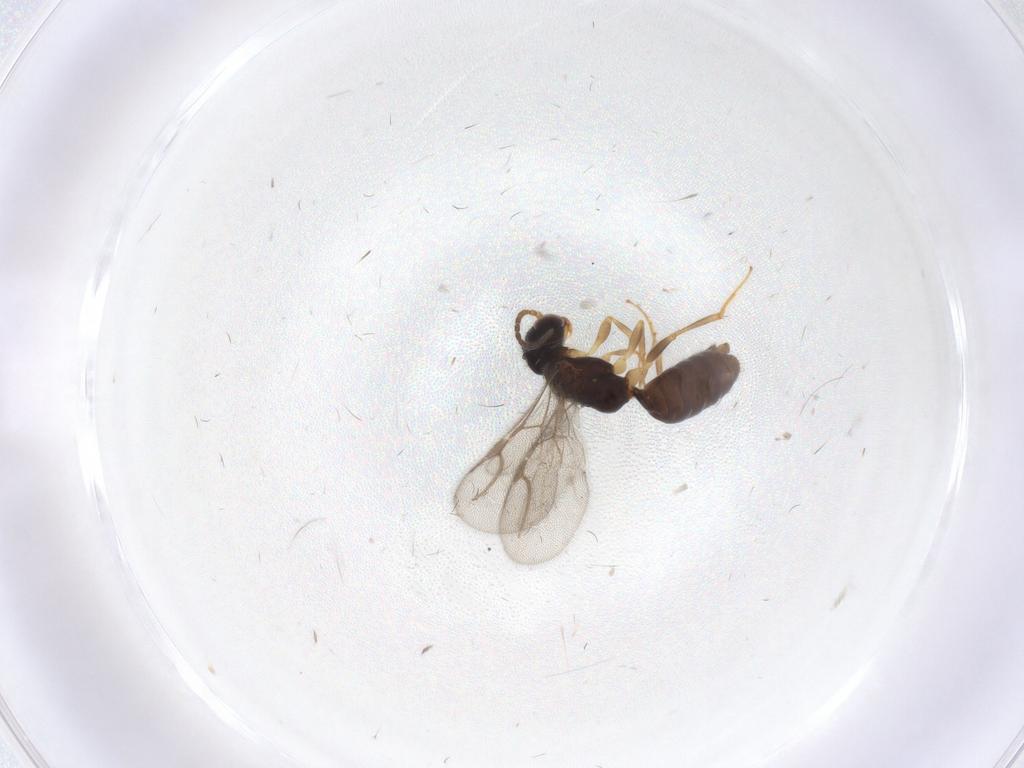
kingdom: Animalia
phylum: Arthropoda
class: Insecta
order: Hymenoptera
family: Bethylidae
